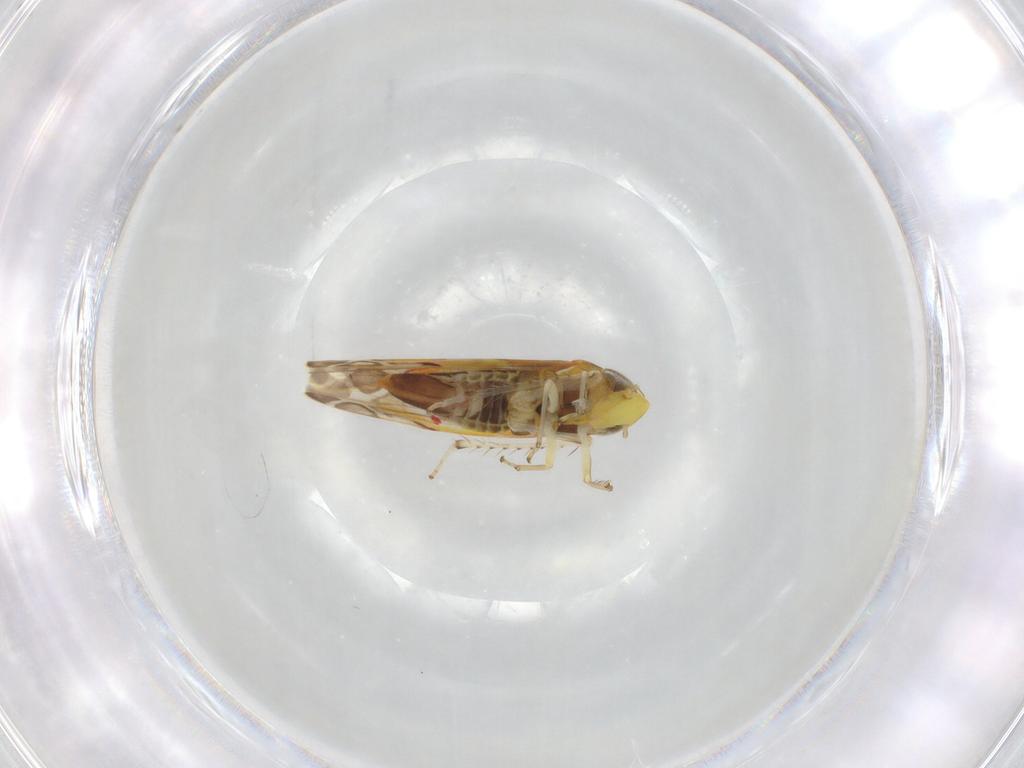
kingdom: Animalia
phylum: Arthropoda
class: Insecta
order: Hemiptera
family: Cicadellidae
